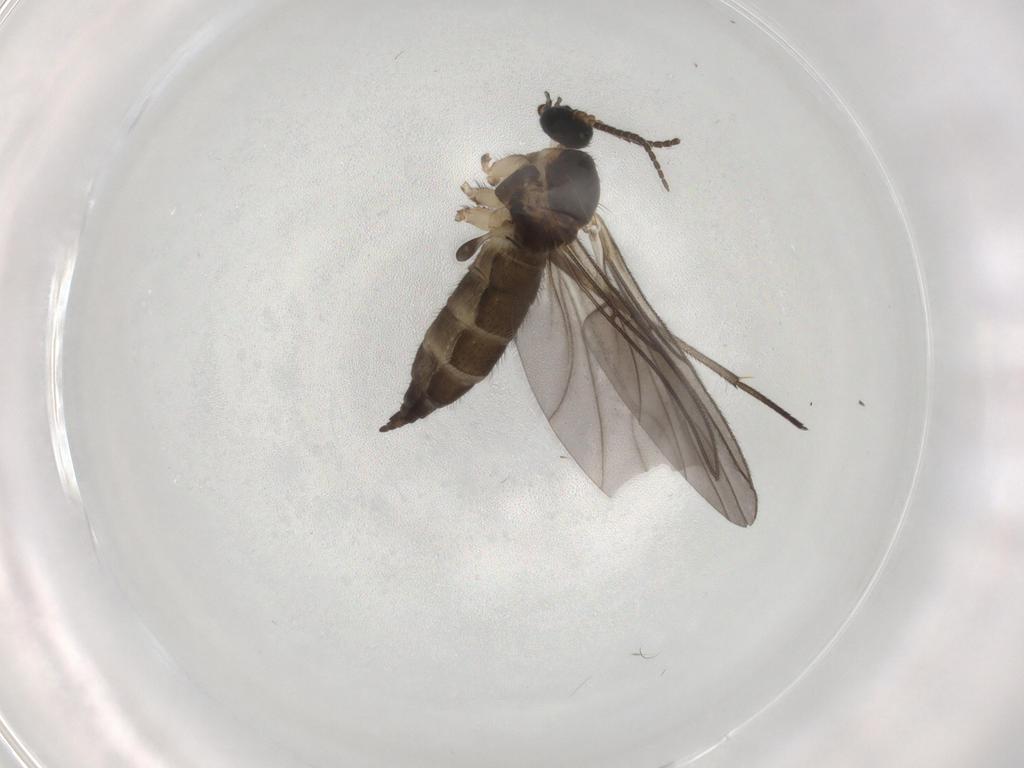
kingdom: Animalia
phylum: Arthropoda
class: Insecta
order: Diptera
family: Sciaridae
